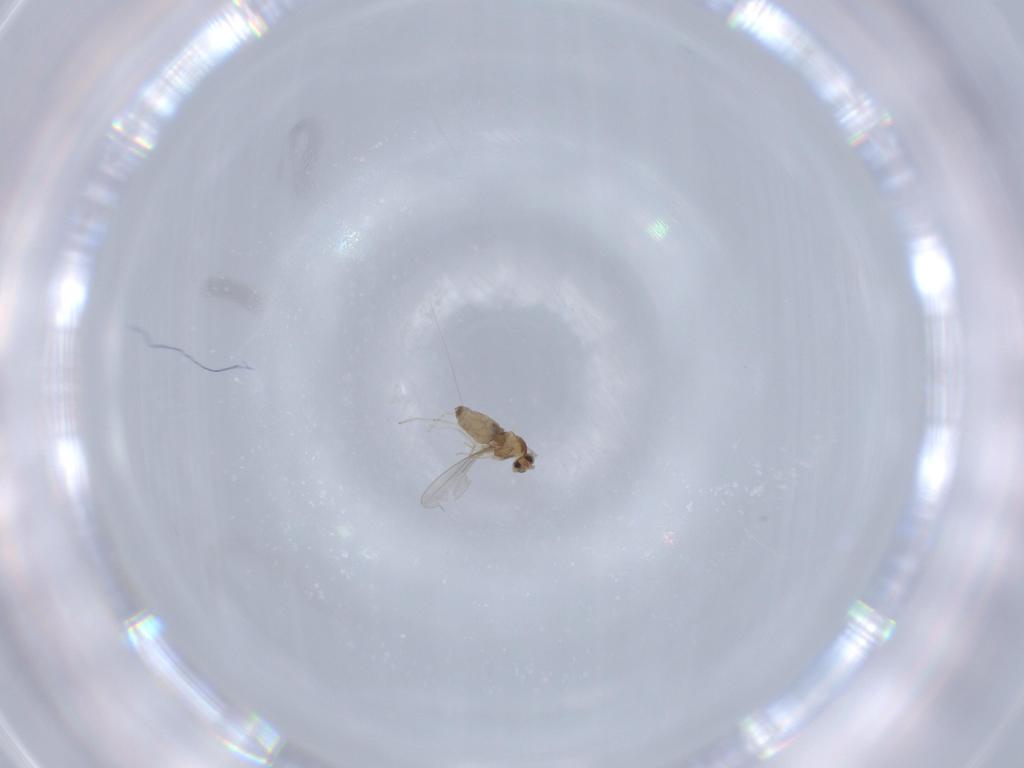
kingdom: Animalia
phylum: Arthropoda
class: Insecta
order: Diptera
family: Cecidomyiidae
